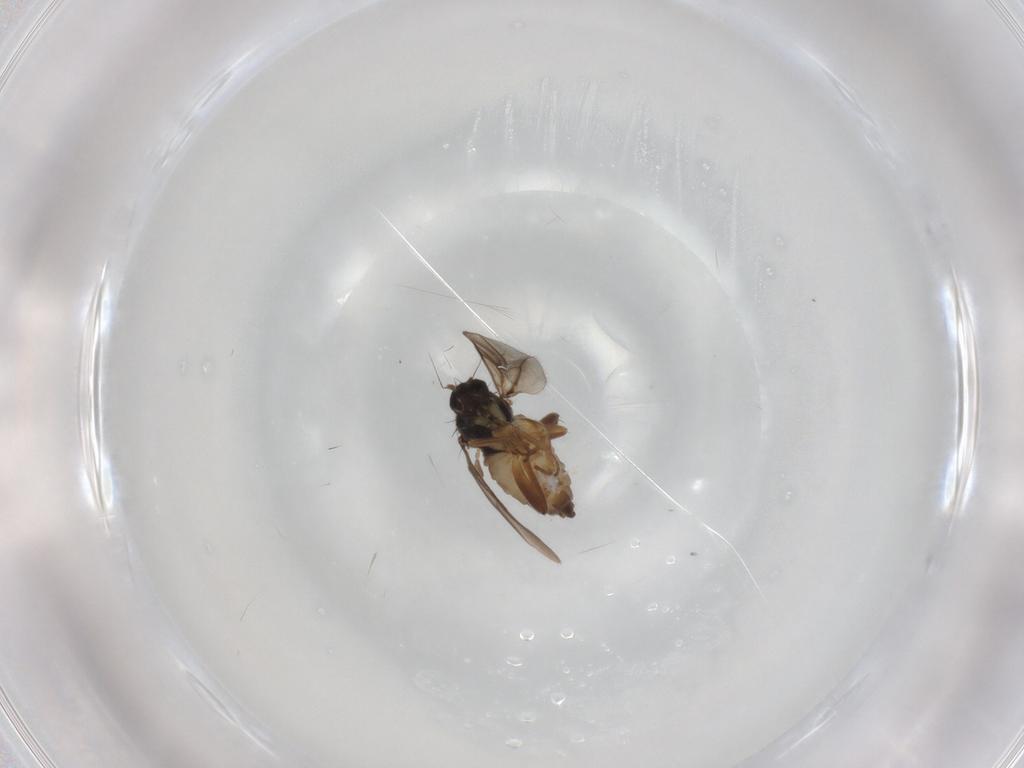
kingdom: Animalia
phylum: Arthropoda
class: Insecta
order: Diptera
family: Hybotidae
